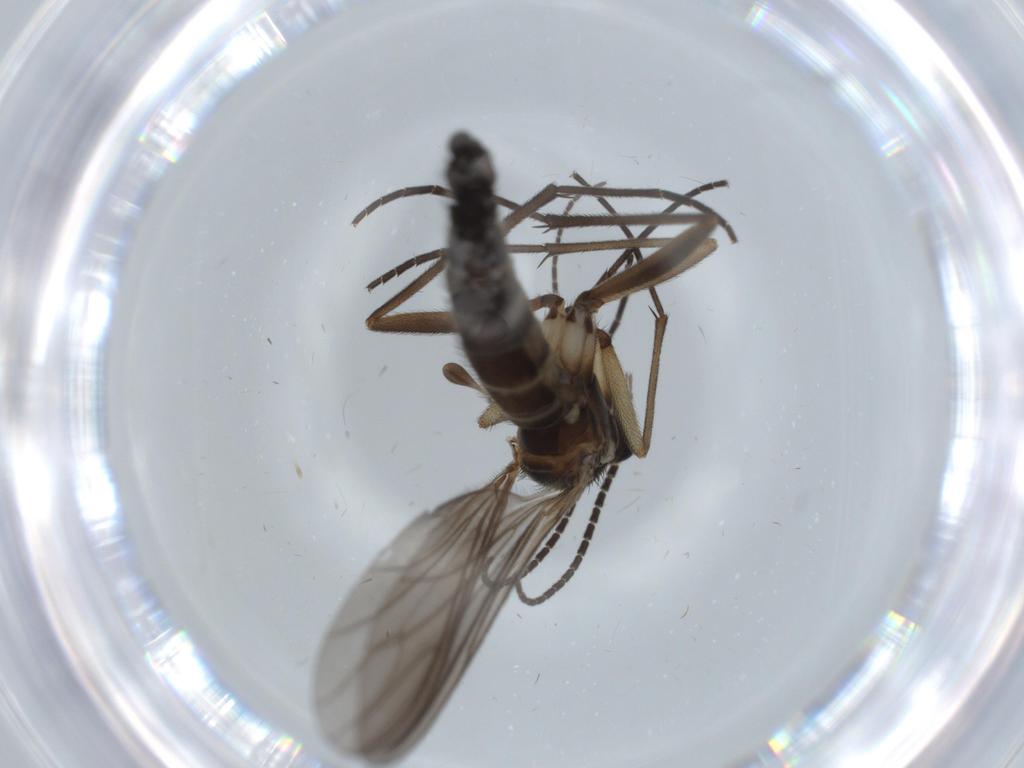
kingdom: Animalia
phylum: Arthropoda
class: Insecta
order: Diptera
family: Sciaridae
